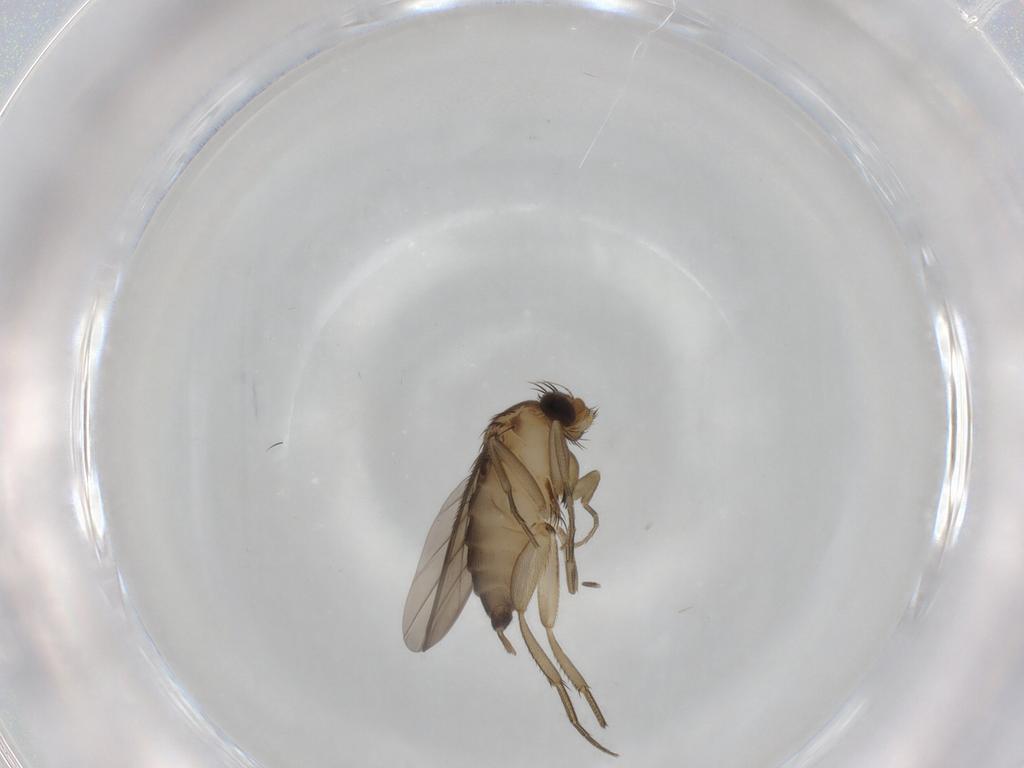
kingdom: Animalia
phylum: Arthropoda
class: Insecta
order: Diptera
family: Phoridae
